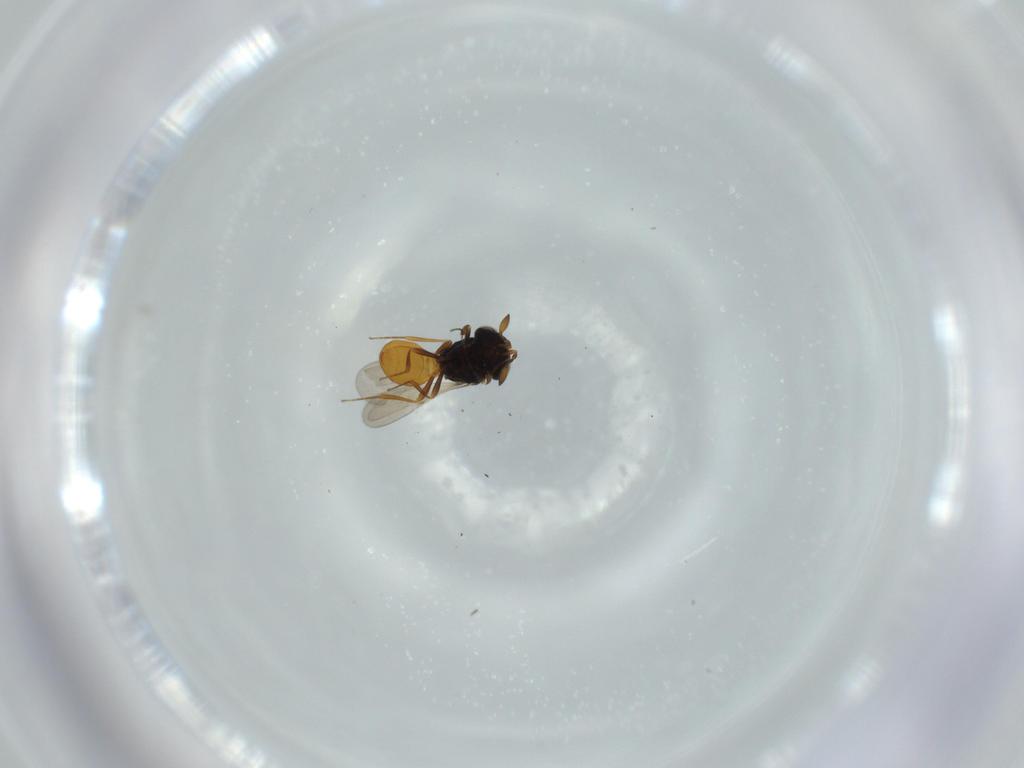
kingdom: Animalia
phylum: Arthropoda
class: Insecta
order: Hymenoptera
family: Scelionidae
